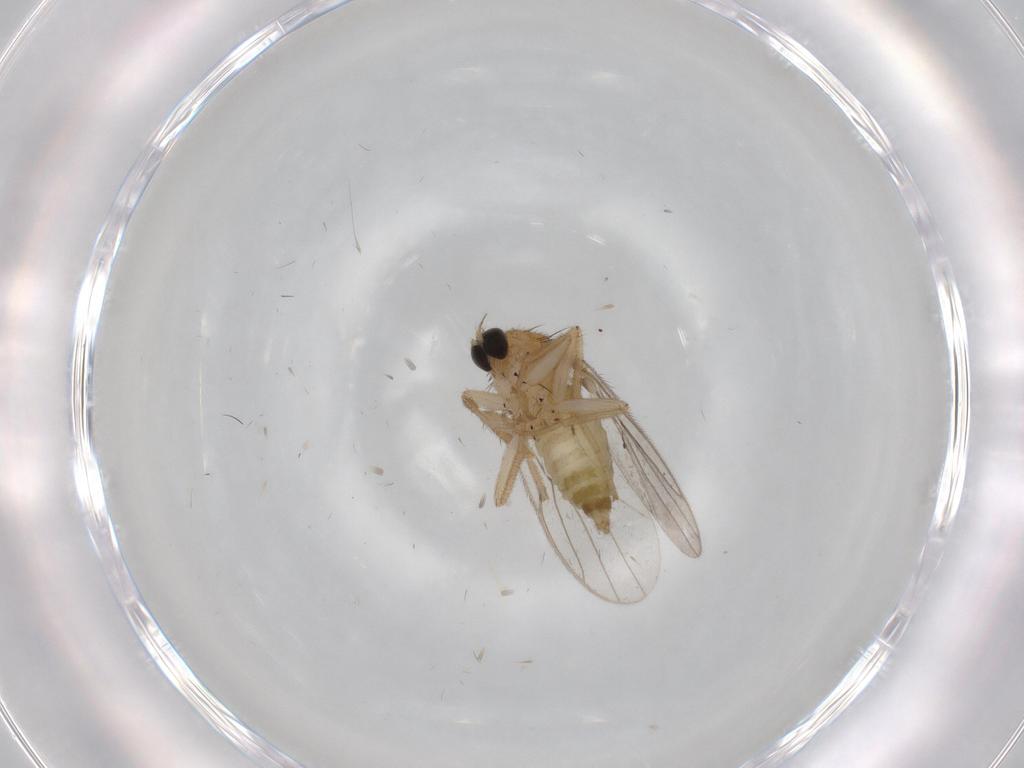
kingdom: Animalia
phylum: Arthropoda
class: Insecta
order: Diptera
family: Hybotidae
